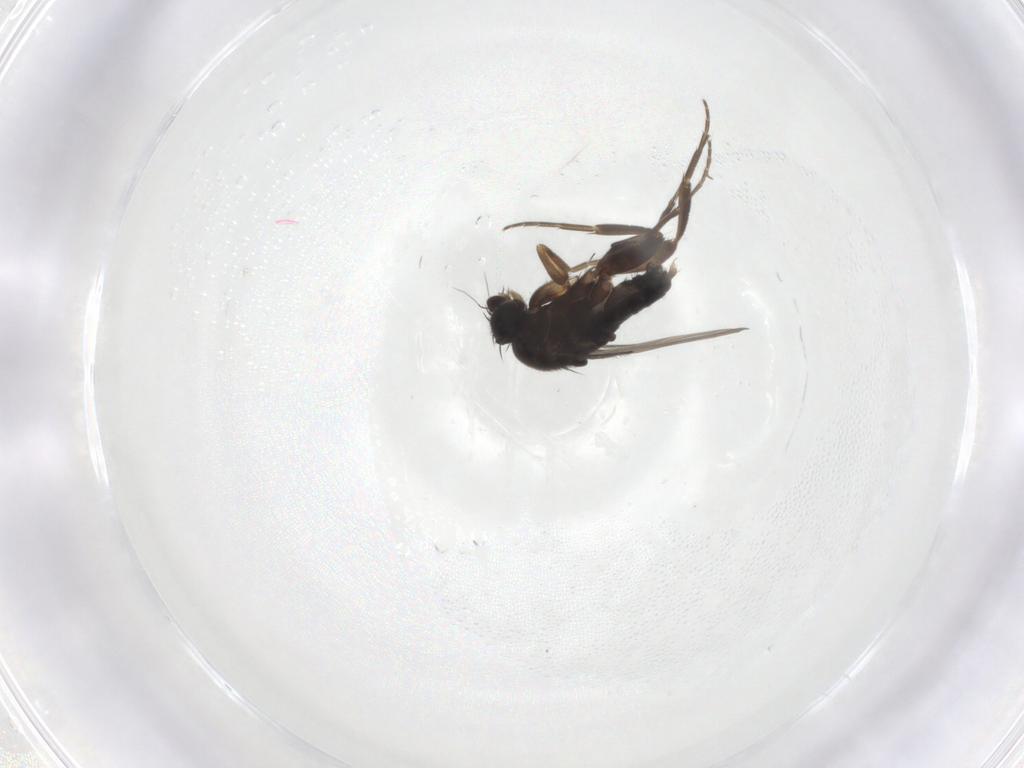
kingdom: Animalia
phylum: Arthropoda
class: Insecta
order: Diptera
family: Phoridae
